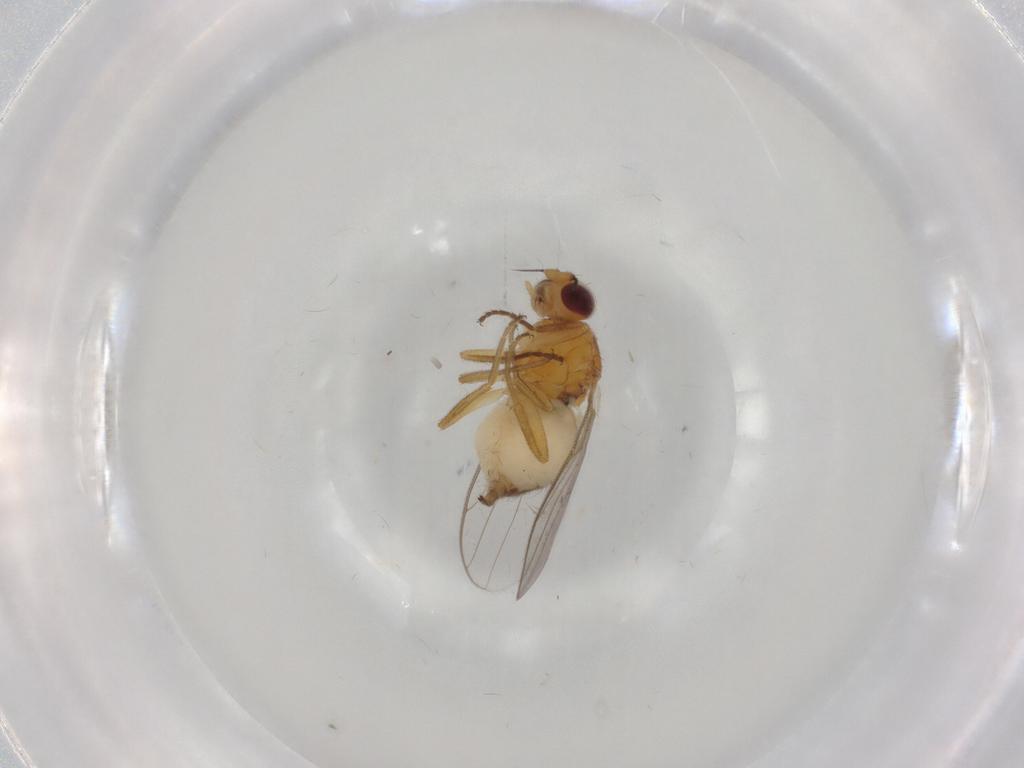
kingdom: Animalia
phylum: Arthropoda
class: Insecta
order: Diptera
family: Chloropidae
